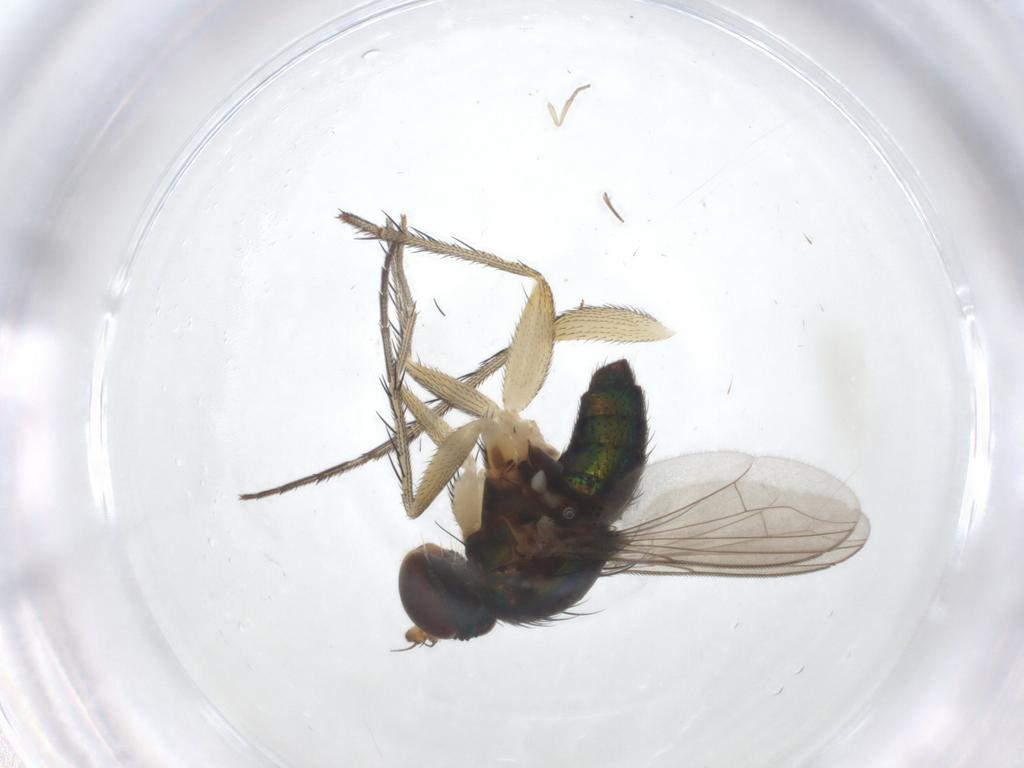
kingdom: Animalia
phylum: Arthropoda
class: Insecta
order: Diptera
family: Dolichopodidae
